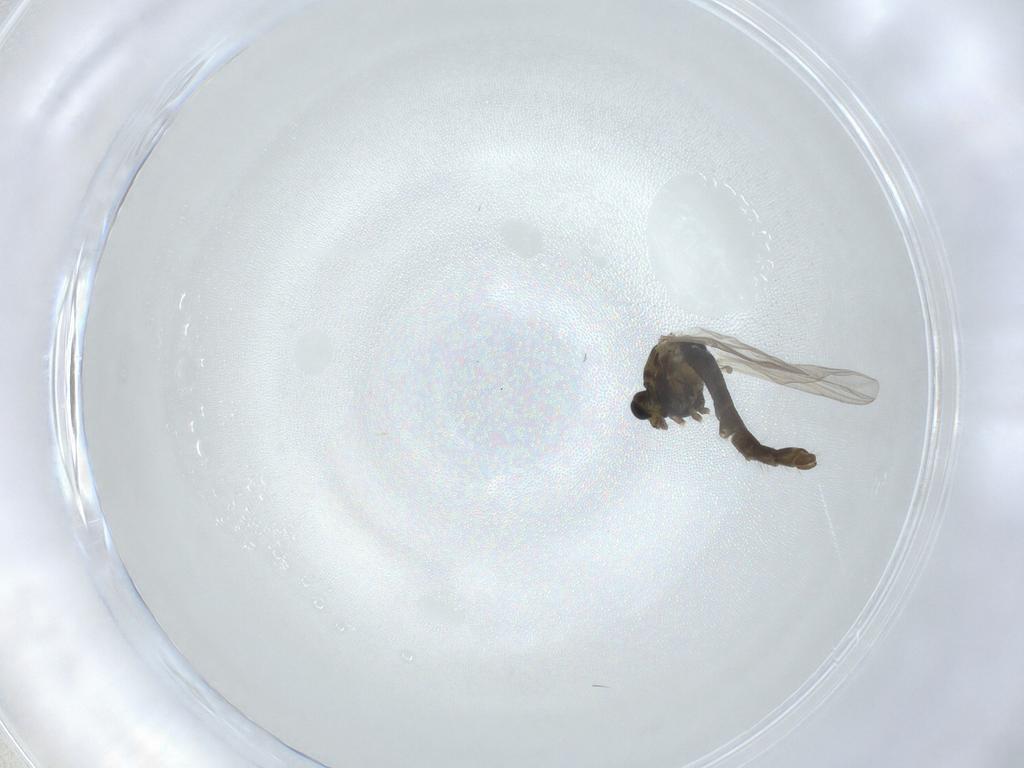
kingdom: Animalia
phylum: Arthropoda
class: Insecta
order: Diptera
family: Chironomidae
